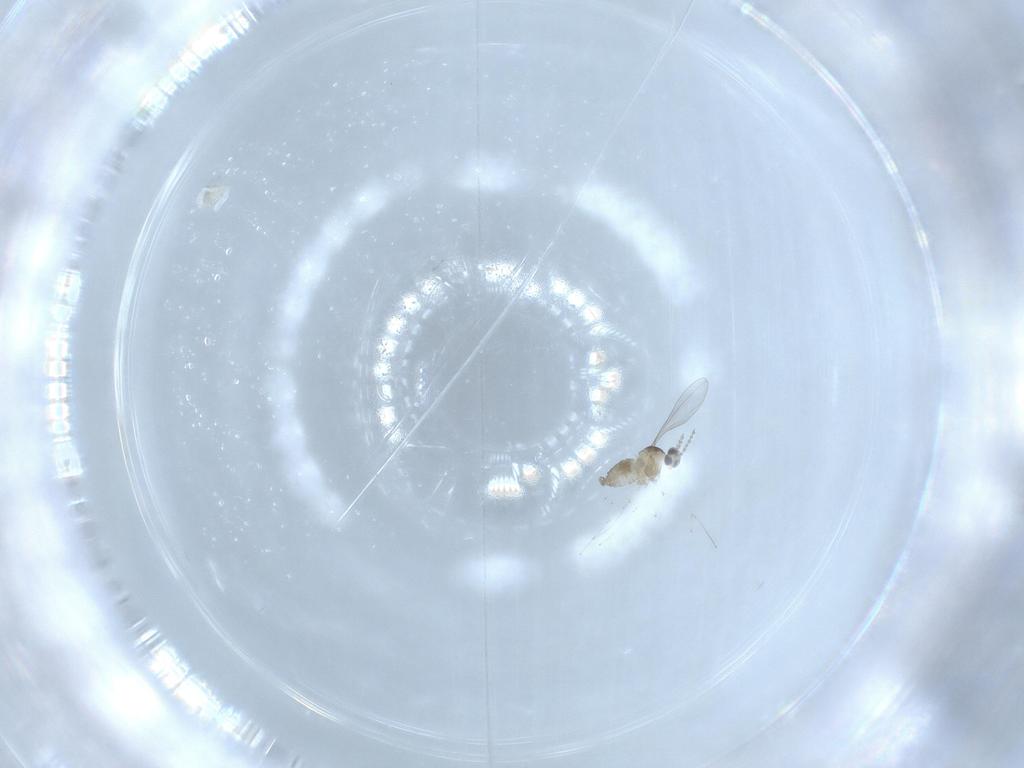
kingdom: Animalia
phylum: Arthropoda
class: Insecta
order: Diptera
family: Cecidomyiidae
